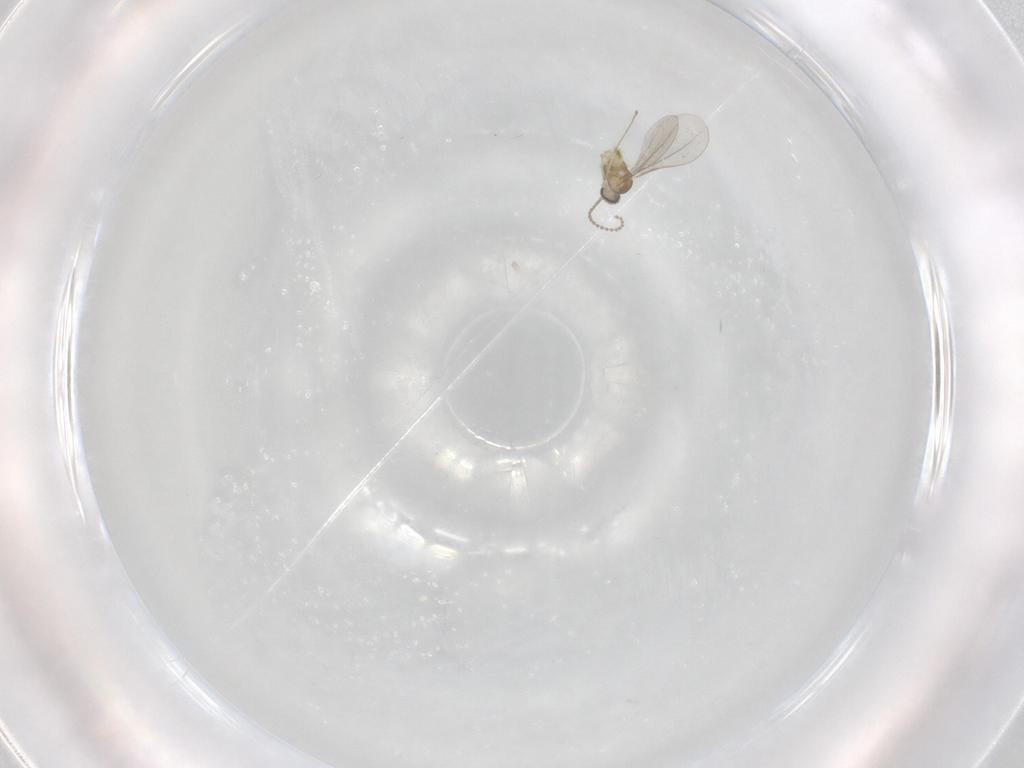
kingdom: Animalia
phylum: Arthropoda
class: Insecta
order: Diptera
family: Cecidomyiidae
